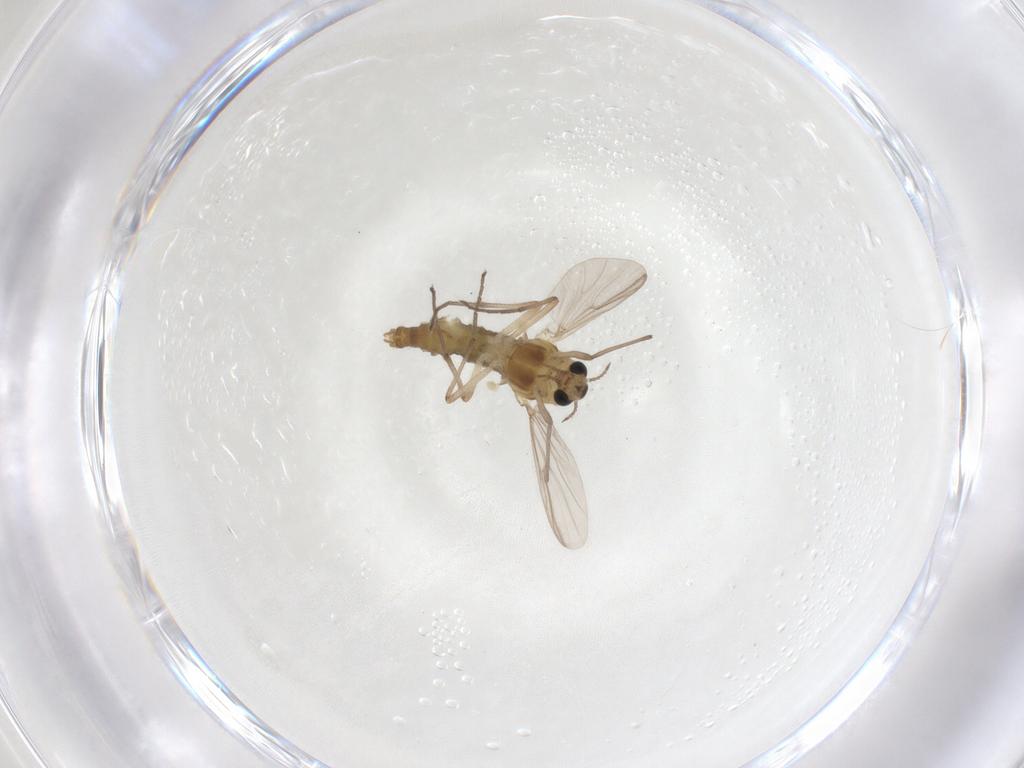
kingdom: Animalia
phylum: Arthropoda
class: Insecta
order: Diptera
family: Chironomidae
